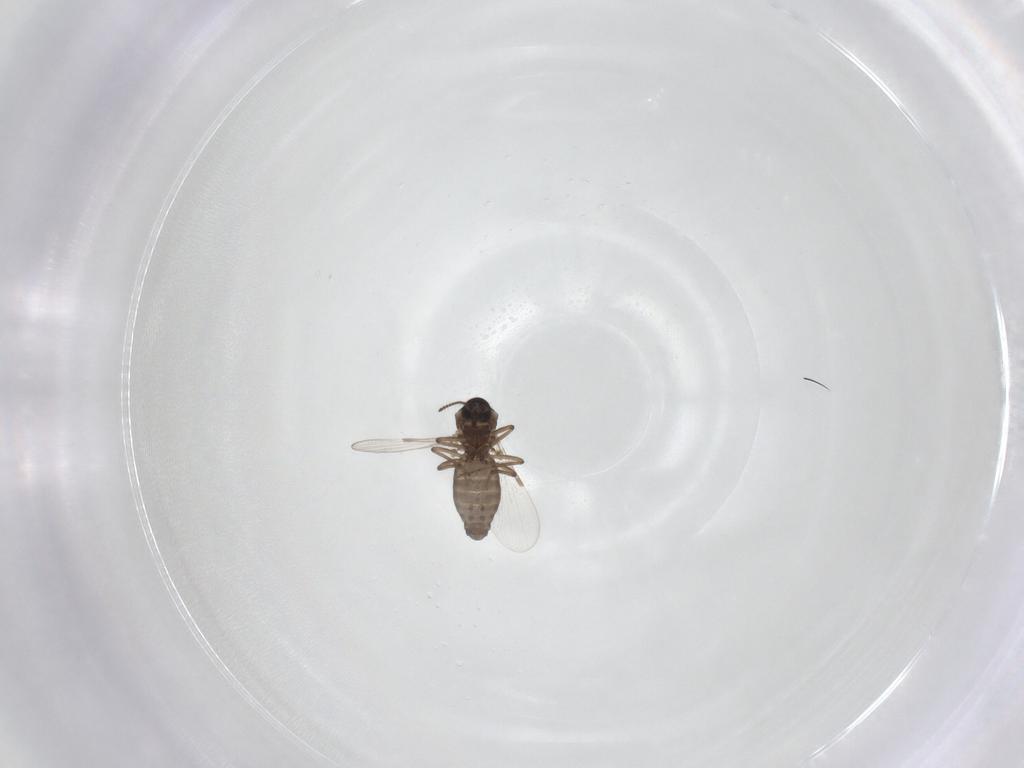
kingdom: Animalia
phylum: Arthropoda
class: Insecta
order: Diptera
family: Ceratopogonidae
